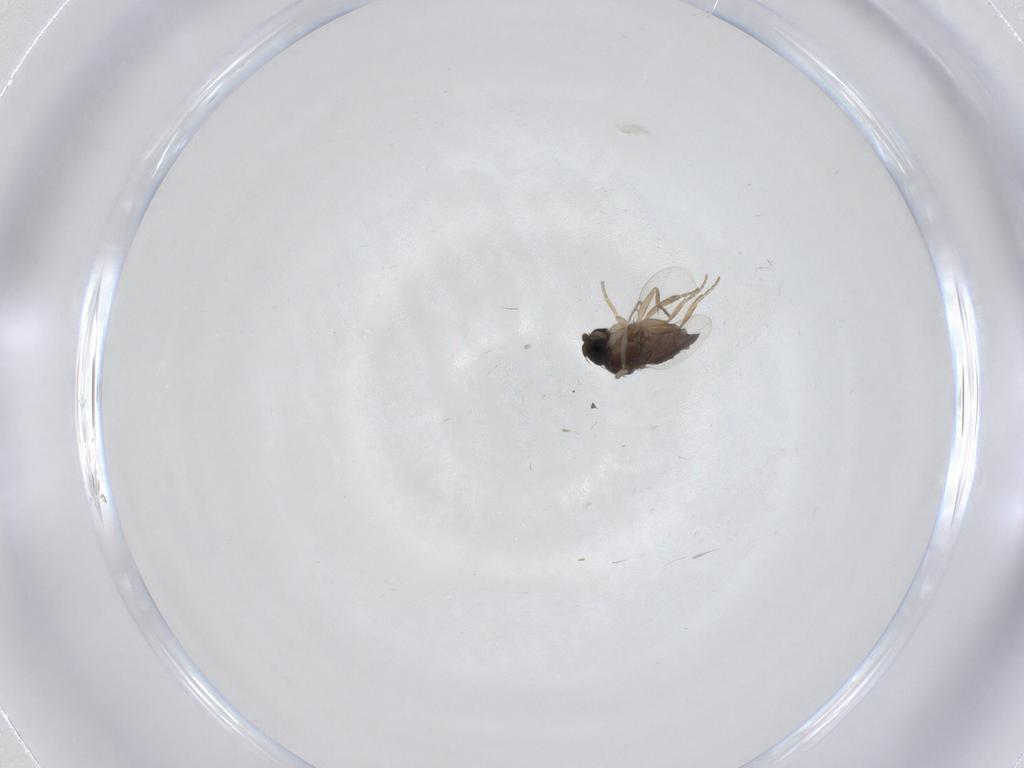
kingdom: Animalia
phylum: Arthropoda
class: Insecta
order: Diptera
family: Phoridae
